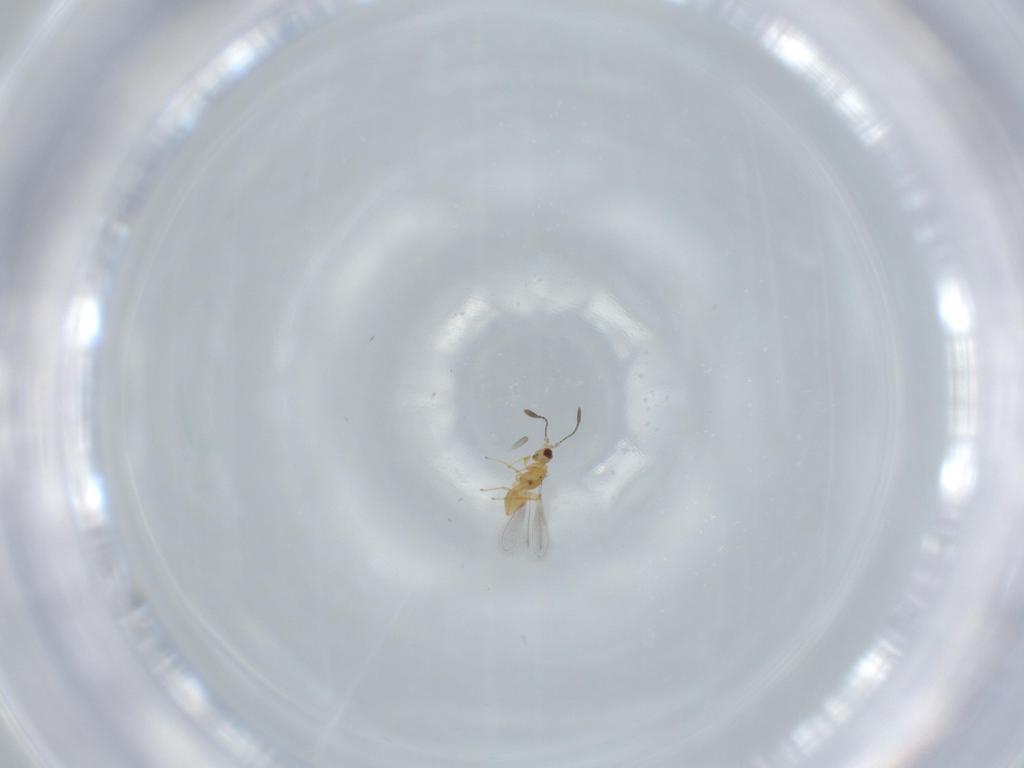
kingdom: Animalia
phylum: Arthropoda
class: Insecta
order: Hymenoptera
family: Mymaridae
